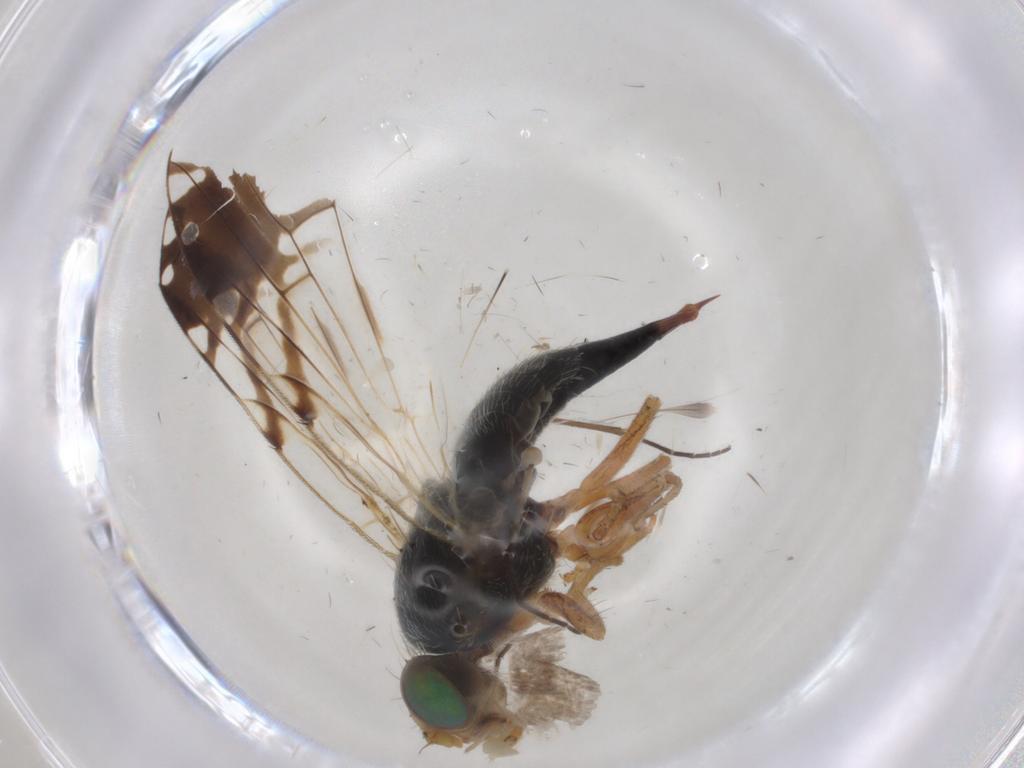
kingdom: Animalia
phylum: Arthropoda
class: Insecta
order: Diptera
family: Tephritidae
